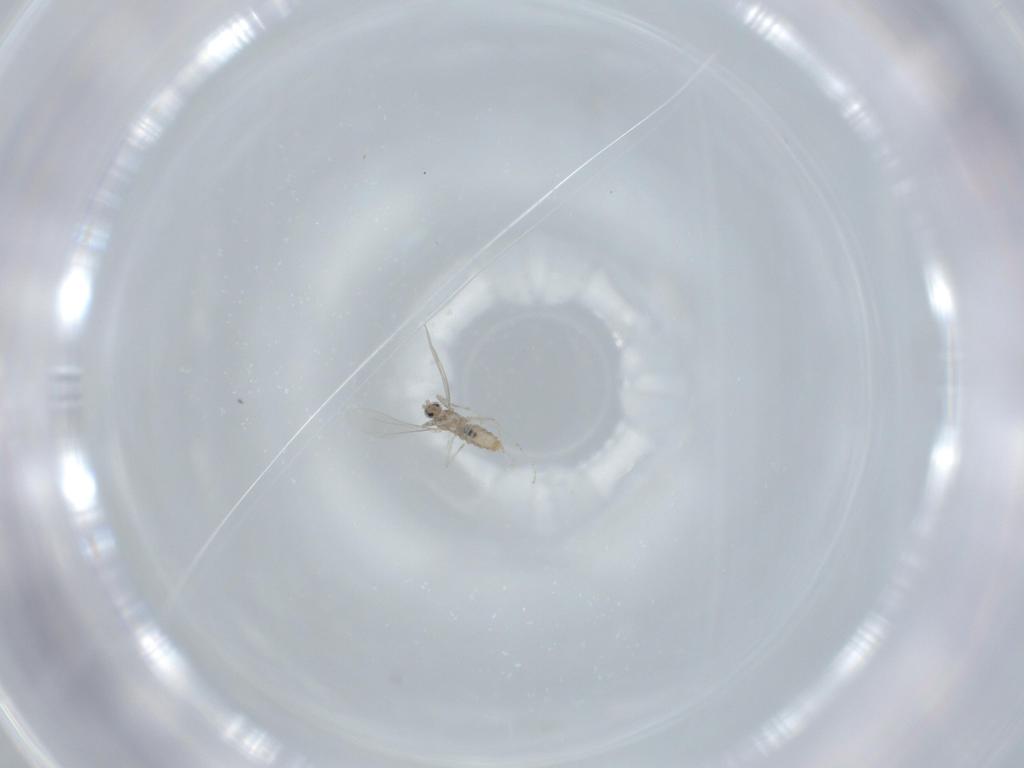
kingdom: Animalia
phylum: Arthropoda
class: Insecta
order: Diptera
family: Cecidomyiidae
